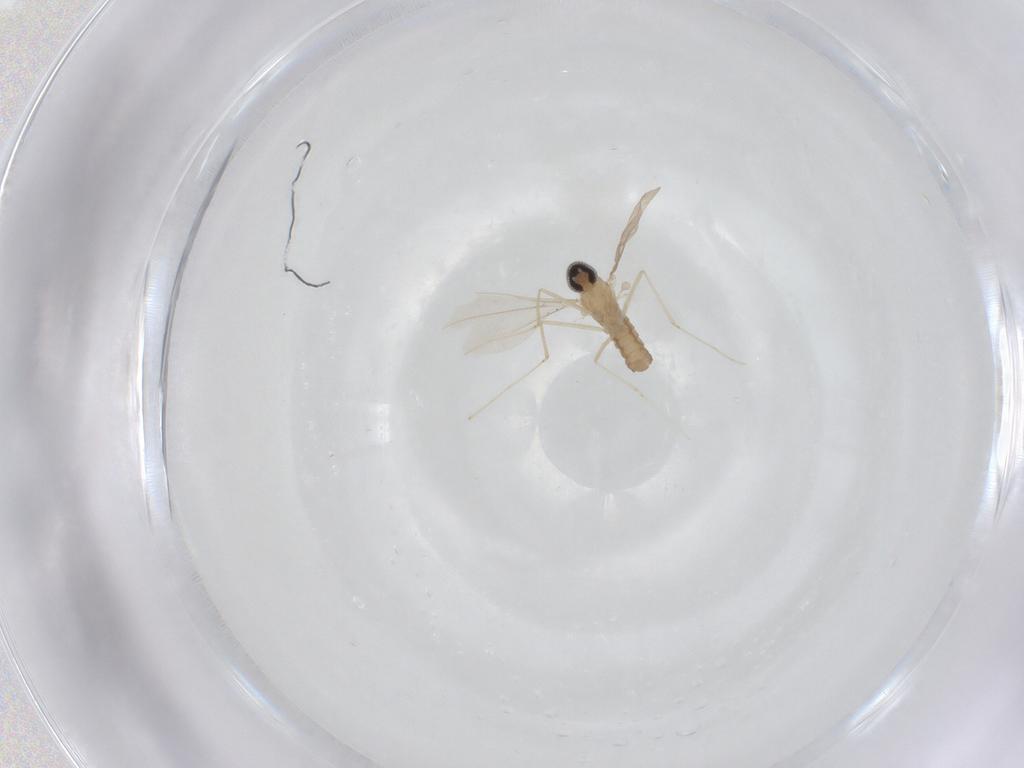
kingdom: Animalia
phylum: Arthropoda
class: Insecta
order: Diptera
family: Cecidomyiidae
